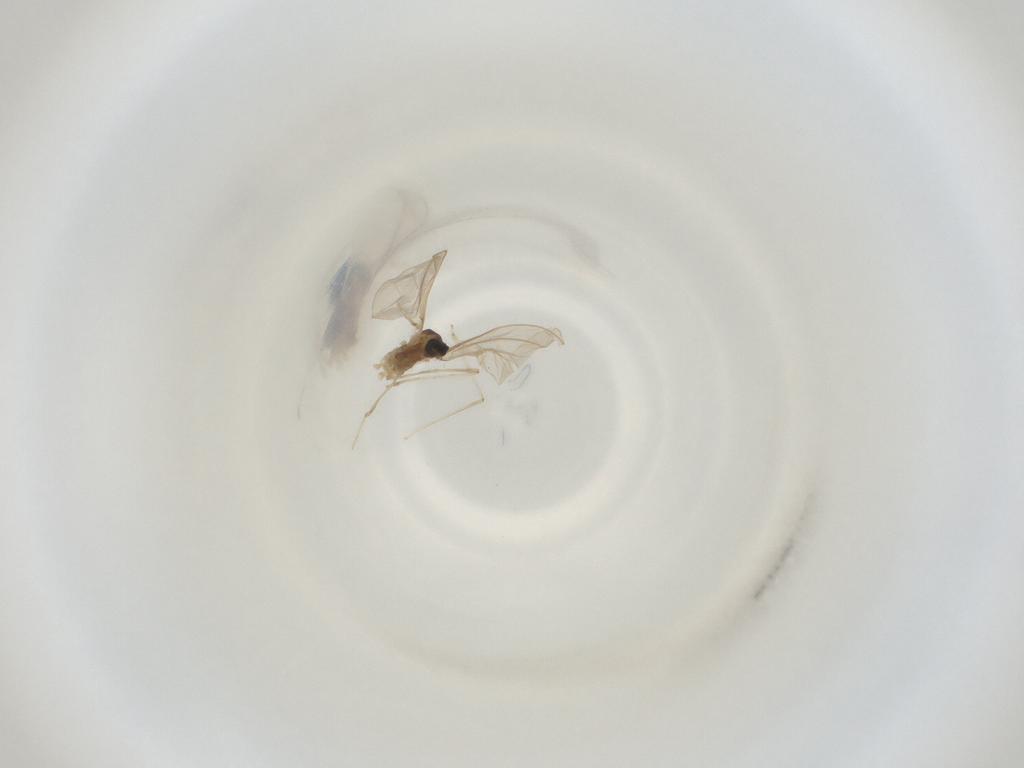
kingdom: Animalia
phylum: Arthropoda
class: Insecta
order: Diptera
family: Cecidomyiidae
